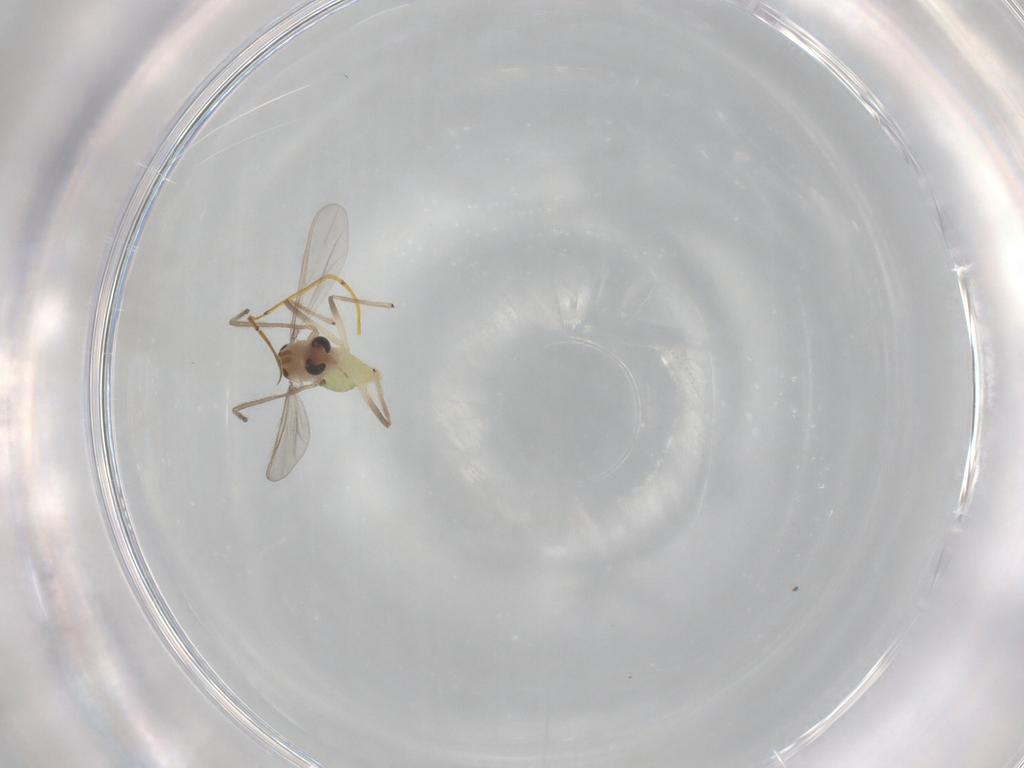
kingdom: Animalia
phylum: Arthropoda
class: Insecta
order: Diptera
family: Chironomidae
